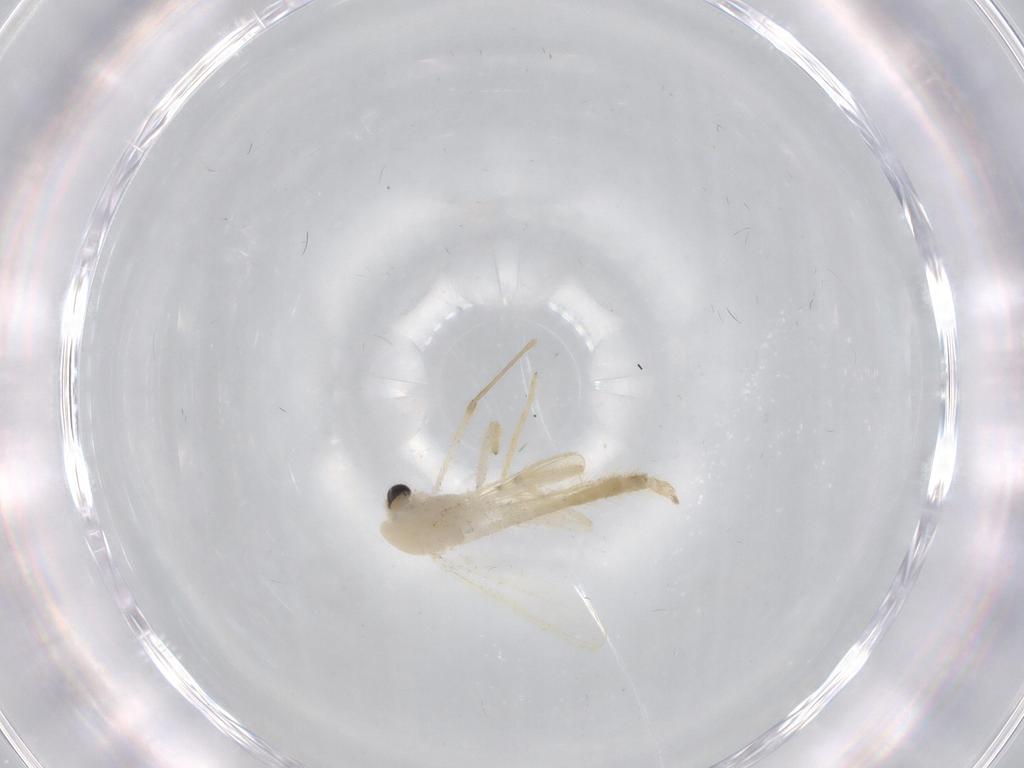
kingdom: Animalia
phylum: Arthropoda
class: Insecta
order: Diptera
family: Chironomidae
